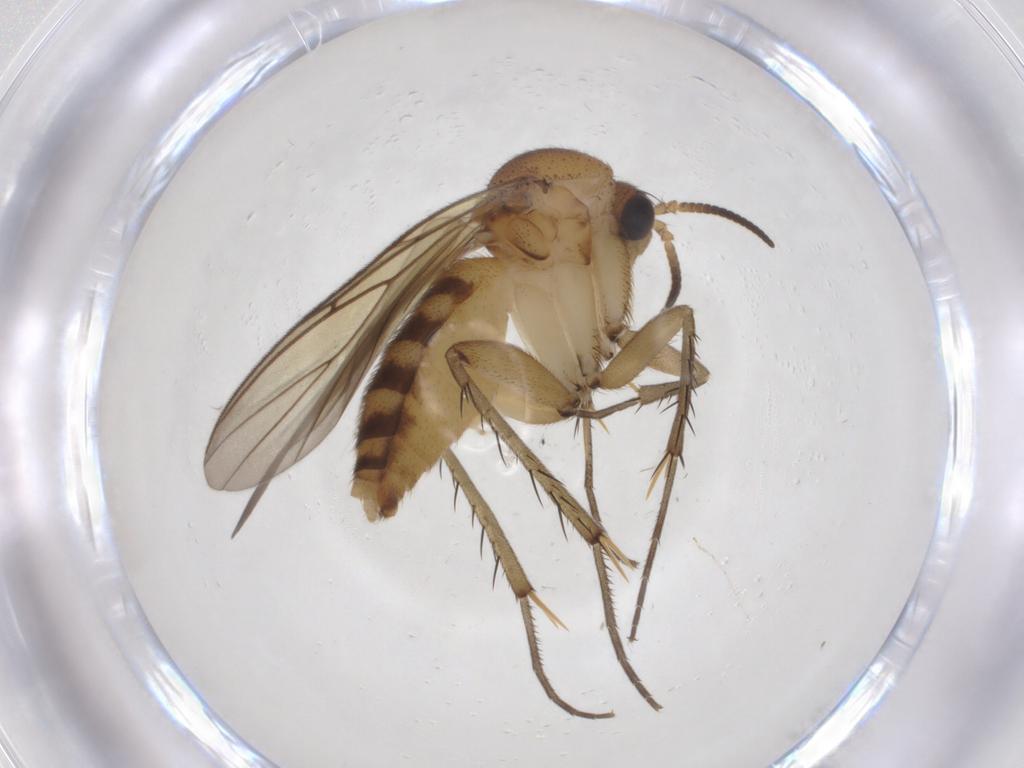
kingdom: Animalia
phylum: Arthropoda
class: Insecta
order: Diptera
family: Mycetophilidae
